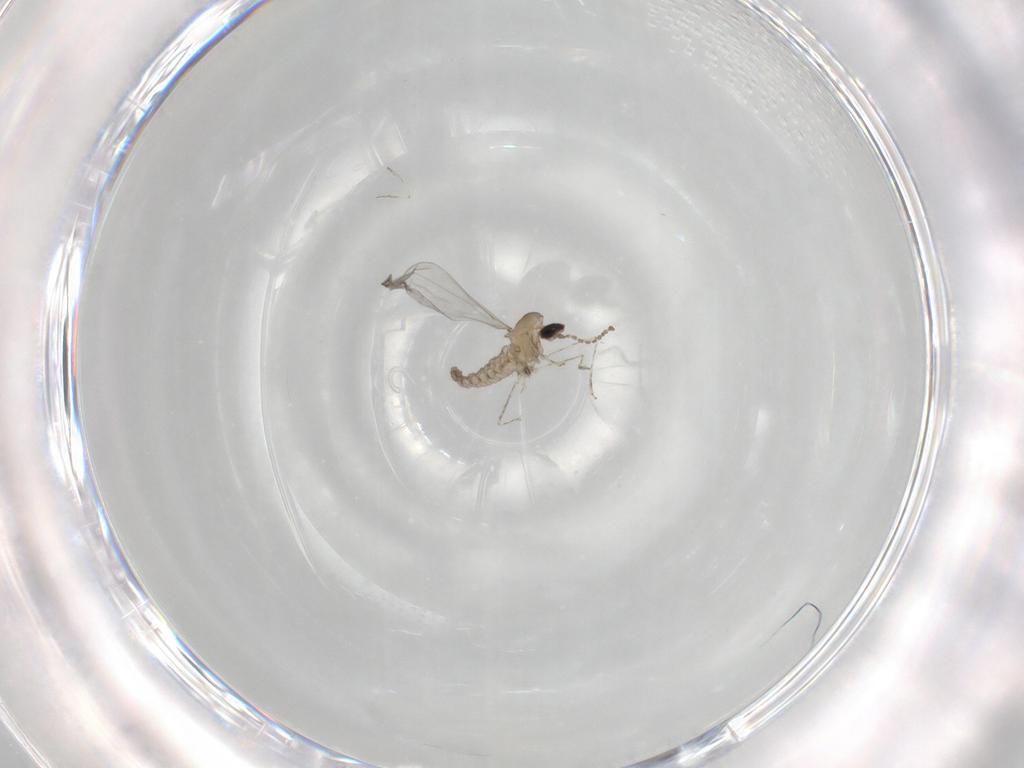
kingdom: Animalia
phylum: Arthropoda
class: Insecta
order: Diptera
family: Cecidomyiidae
